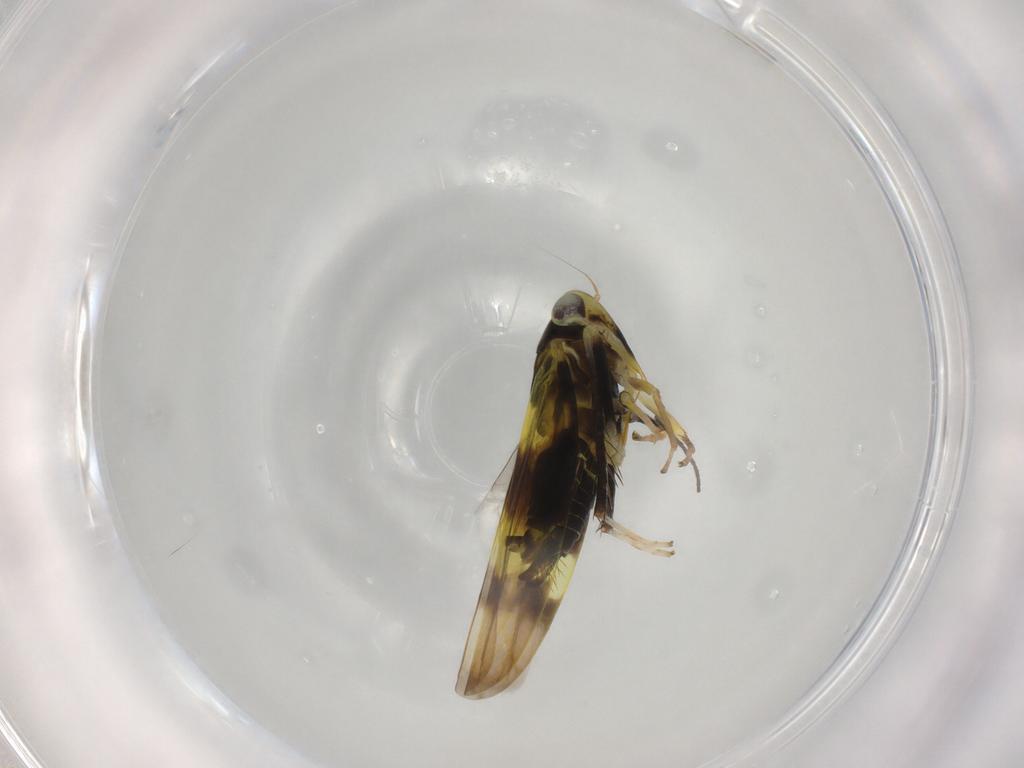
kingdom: Animalia
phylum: Arthropoda
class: Insecta
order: Hemiptera
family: Cicadellidae
